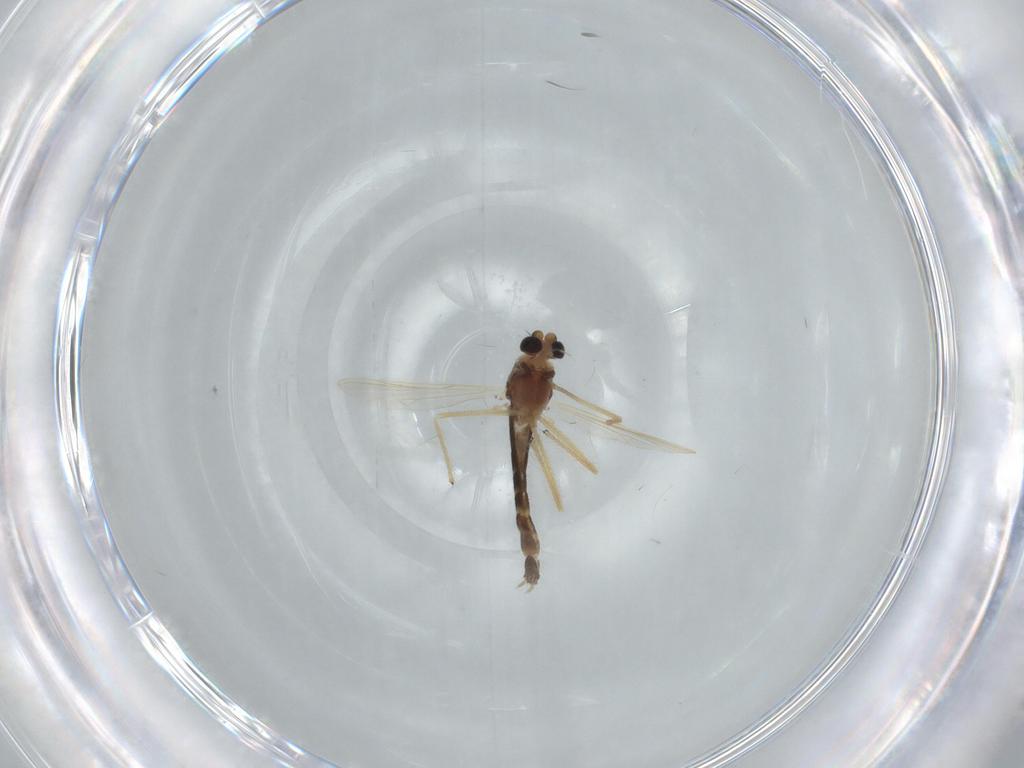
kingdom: Animalia
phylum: Arthropoda
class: Insecta
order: Diptera
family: Chironomidae
